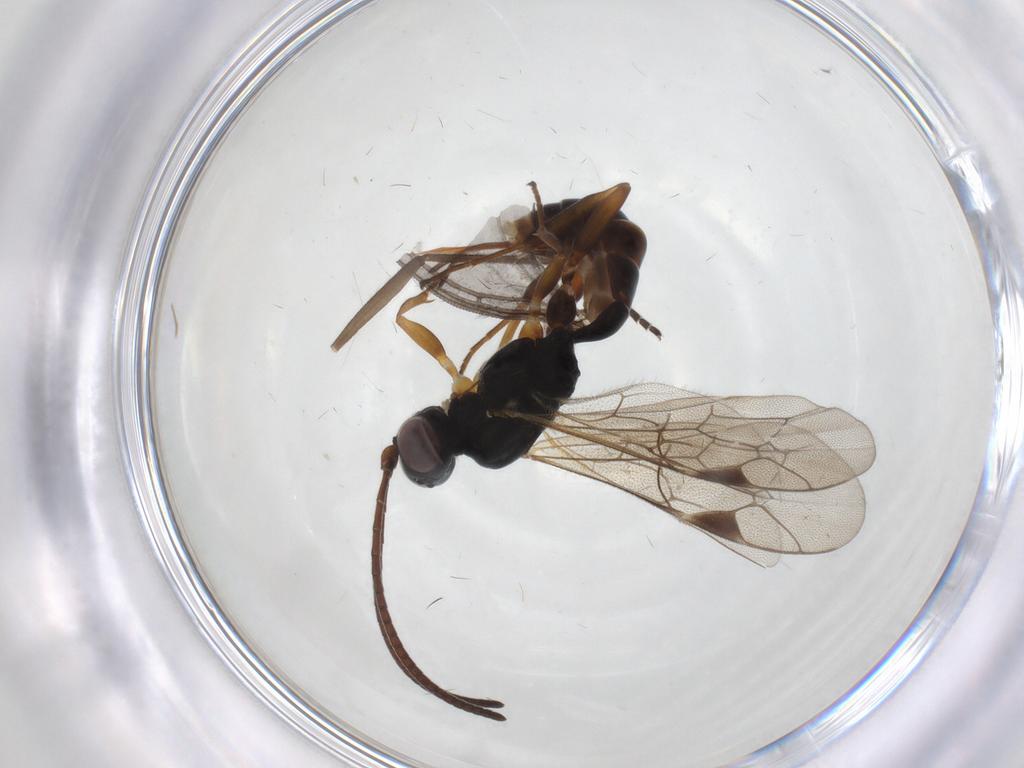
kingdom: Animalia
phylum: Arthropoda
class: Insecta
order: Hymenoptera
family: Ichneumonidae
